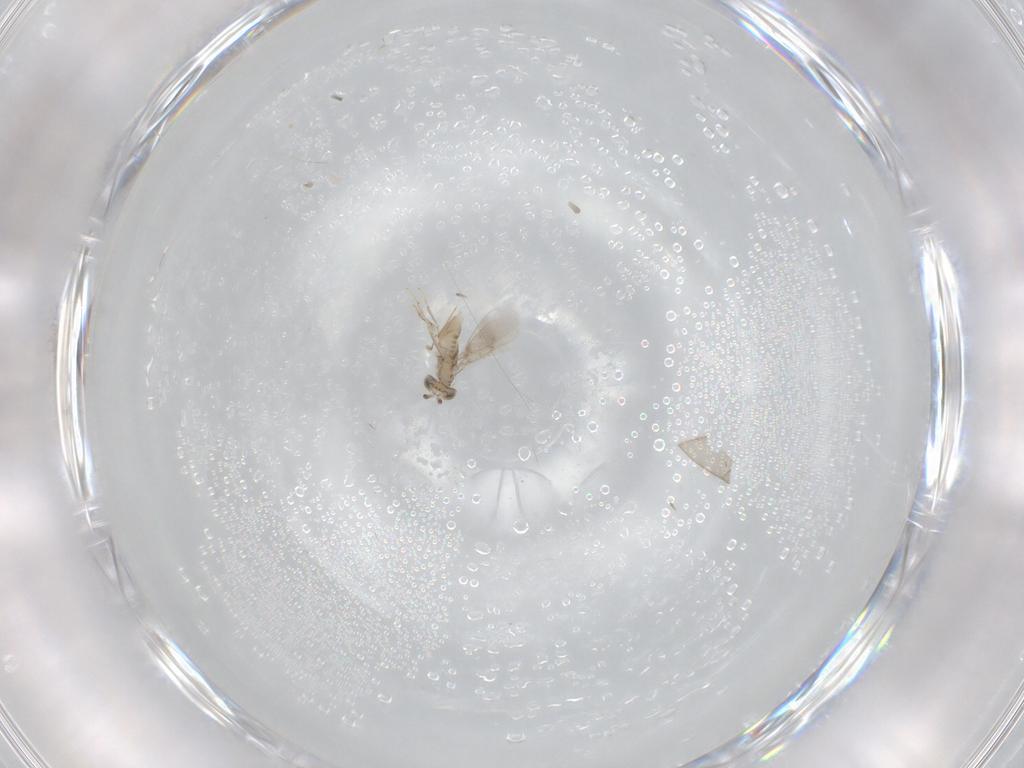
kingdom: Animalia
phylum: Arthropoda
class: Insecta
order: Hymenoptera
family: Aphelinidae
